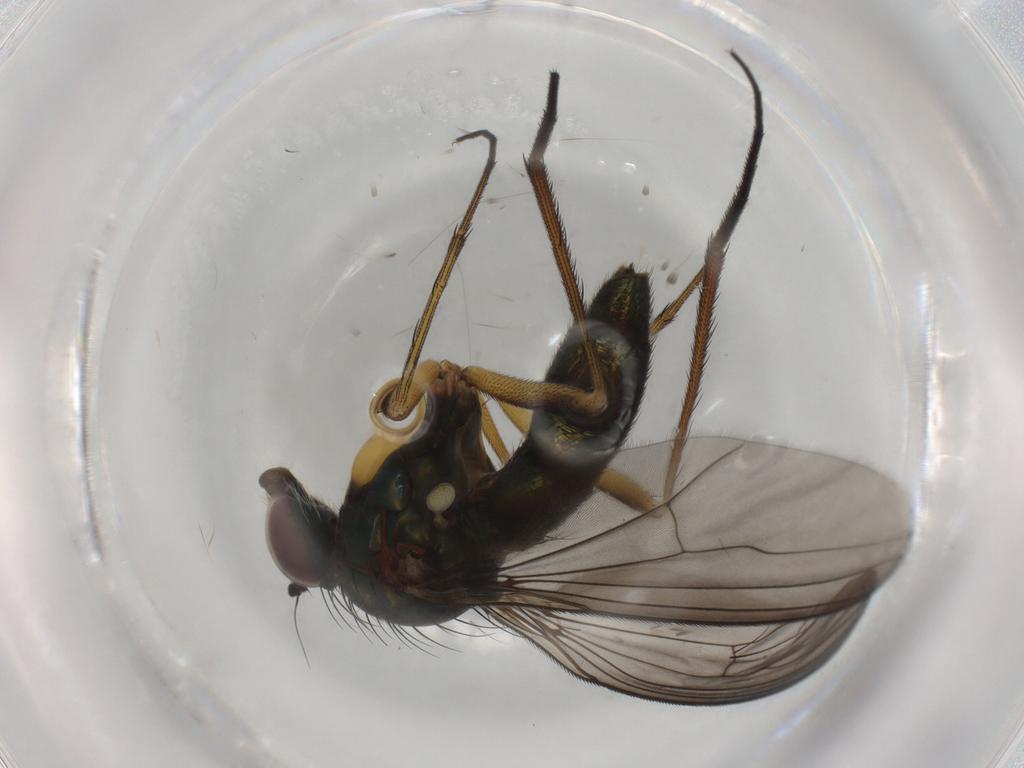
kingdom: Animalia
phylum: Arthropoda
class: Insecta
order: Diptera
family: Dolichopodidae
